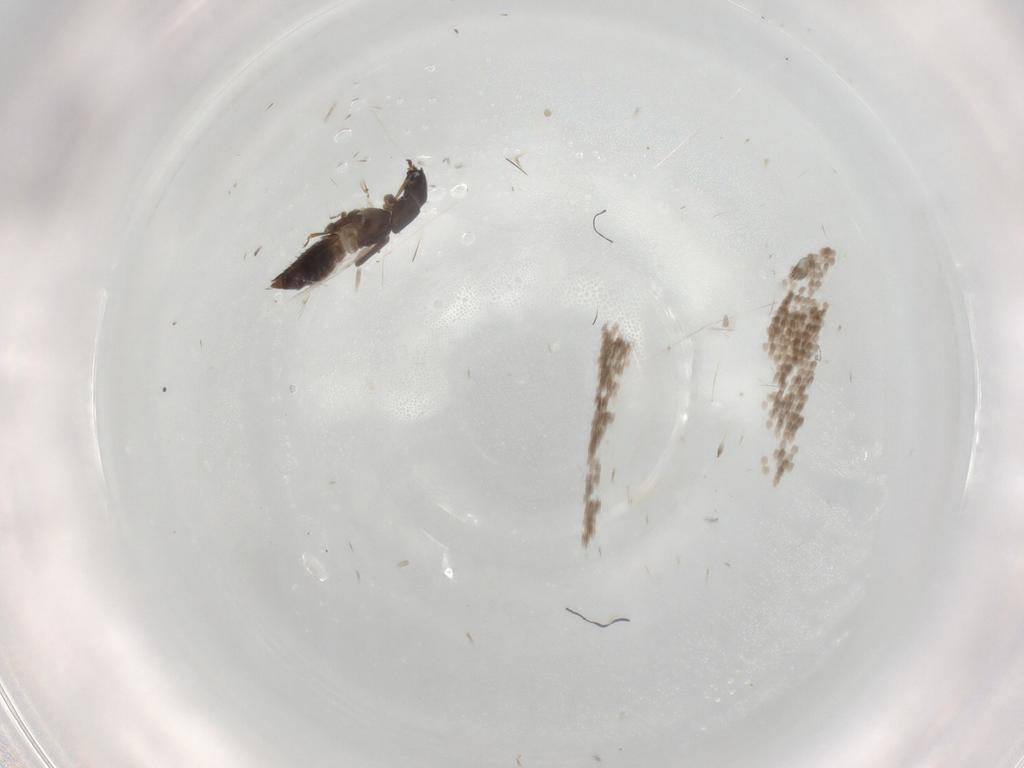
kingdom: Animalia
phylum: Arthropoda
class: Insecta
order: Coleoptera
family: Staphylinidae
